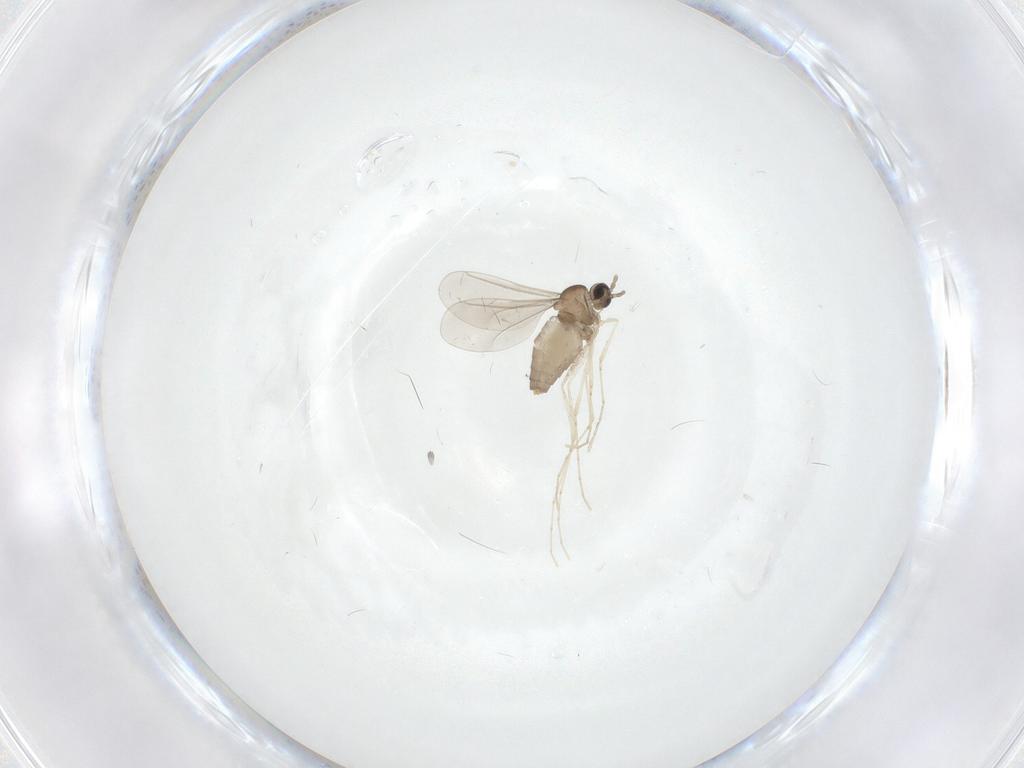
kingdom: Animalia
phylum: Arthropoda
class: Insecta
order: Diptera
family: Cecidomyiidae
